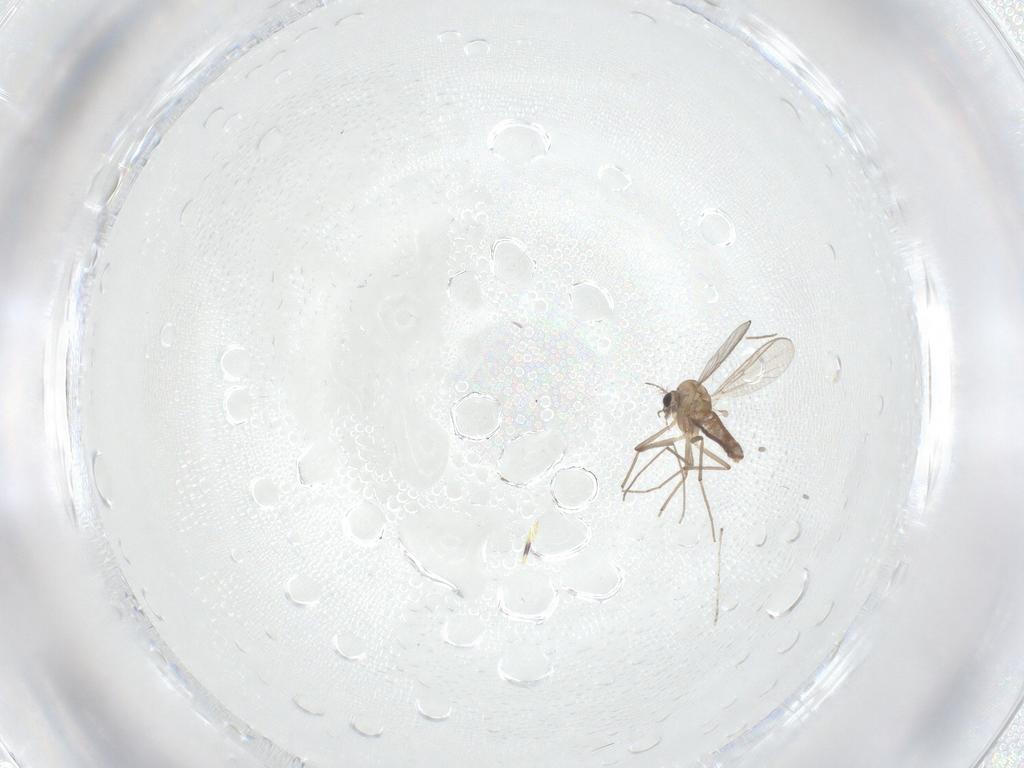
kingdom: Animalia
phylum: Arthropoda
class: Insecta
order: Diptera
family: Chironomidae
